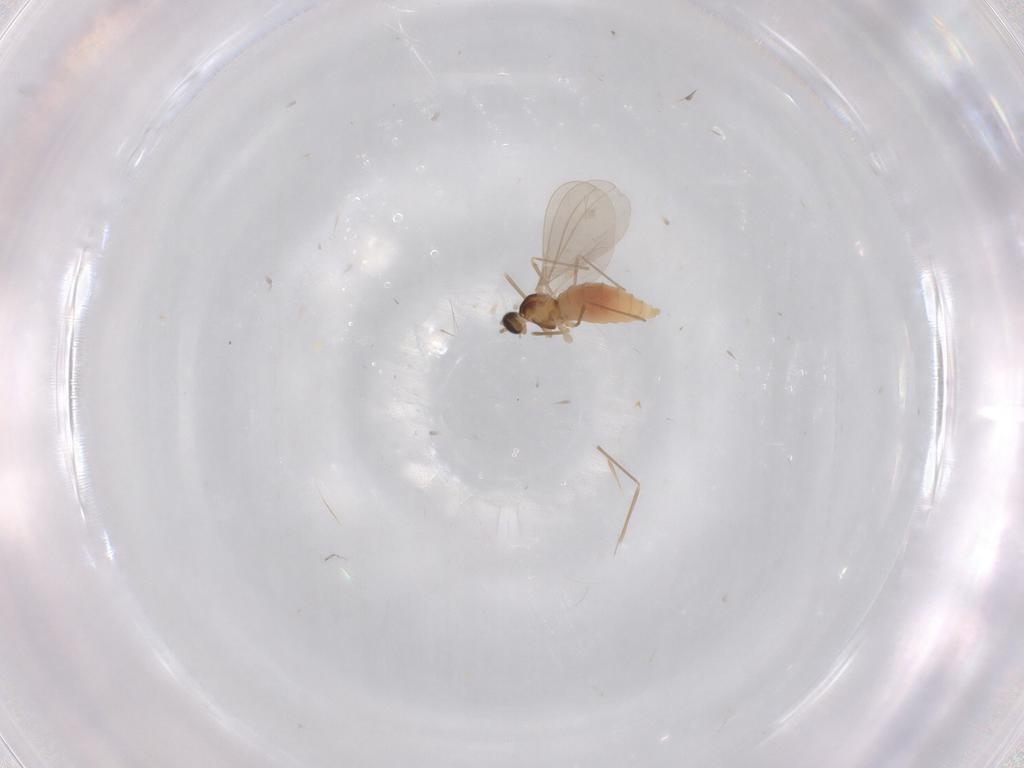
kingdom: Animalia
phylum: Arthropoda
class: Insecta
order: Diptera
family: Cecidomyiidae
